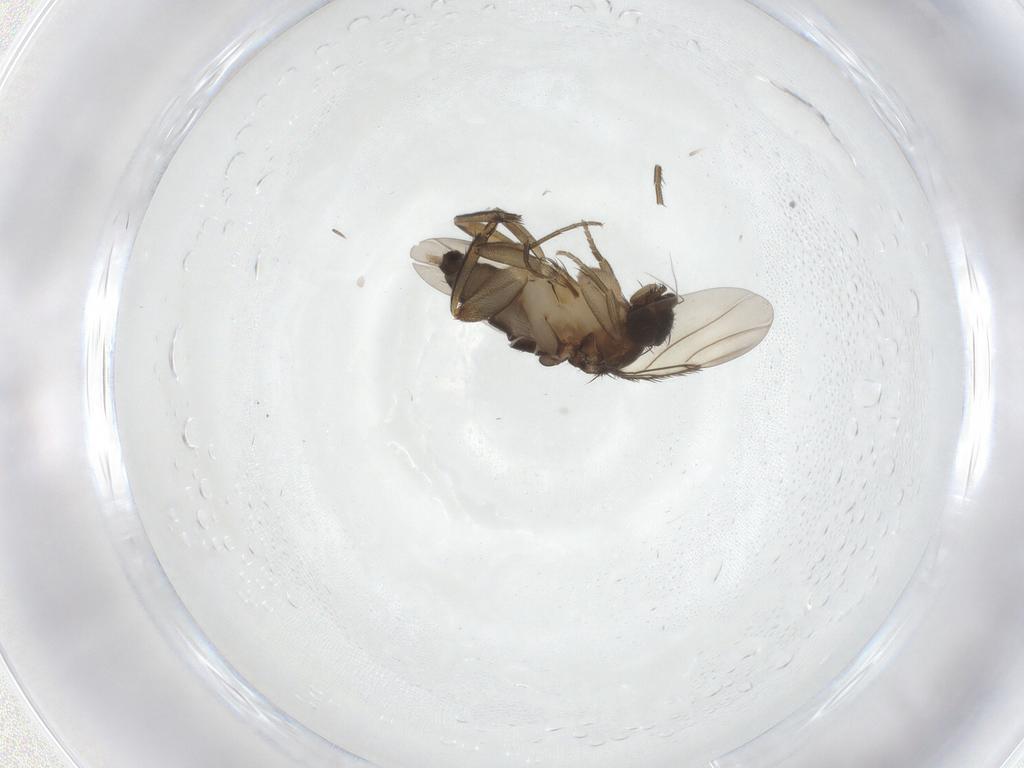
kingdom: Animalia
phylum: Arthropoda
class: Insecta
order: Diptera
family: Phoridae
